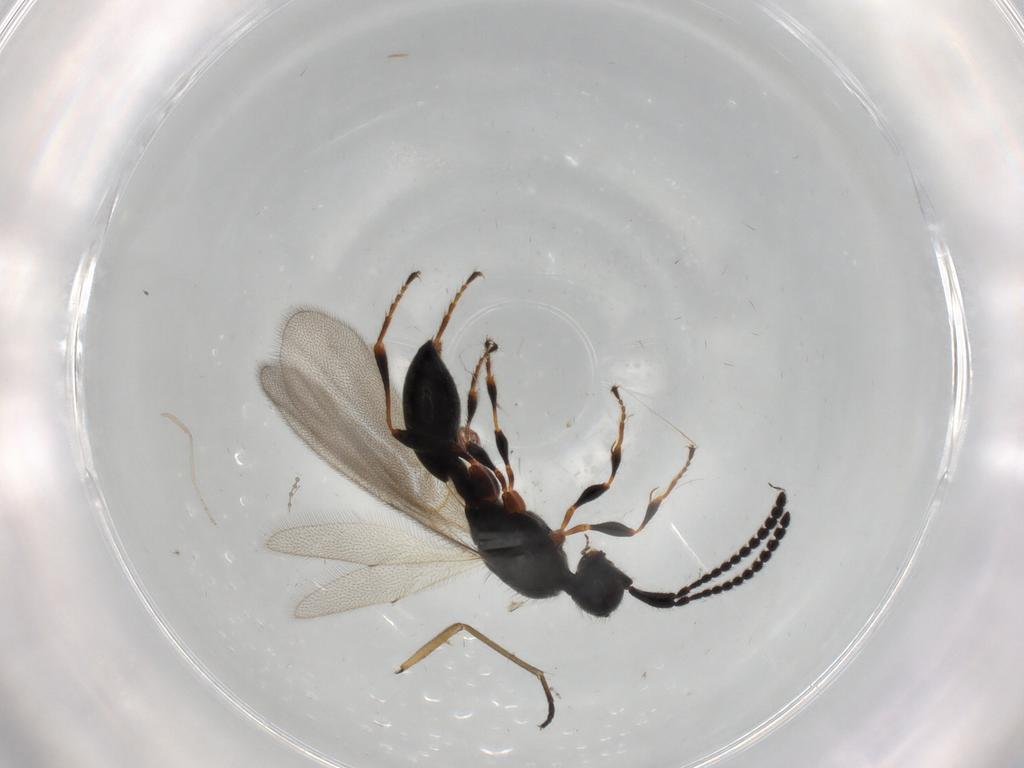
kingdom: Animalia
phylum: Arthropoda
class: Insecta
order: Hymenoptera
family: Diapriidae
